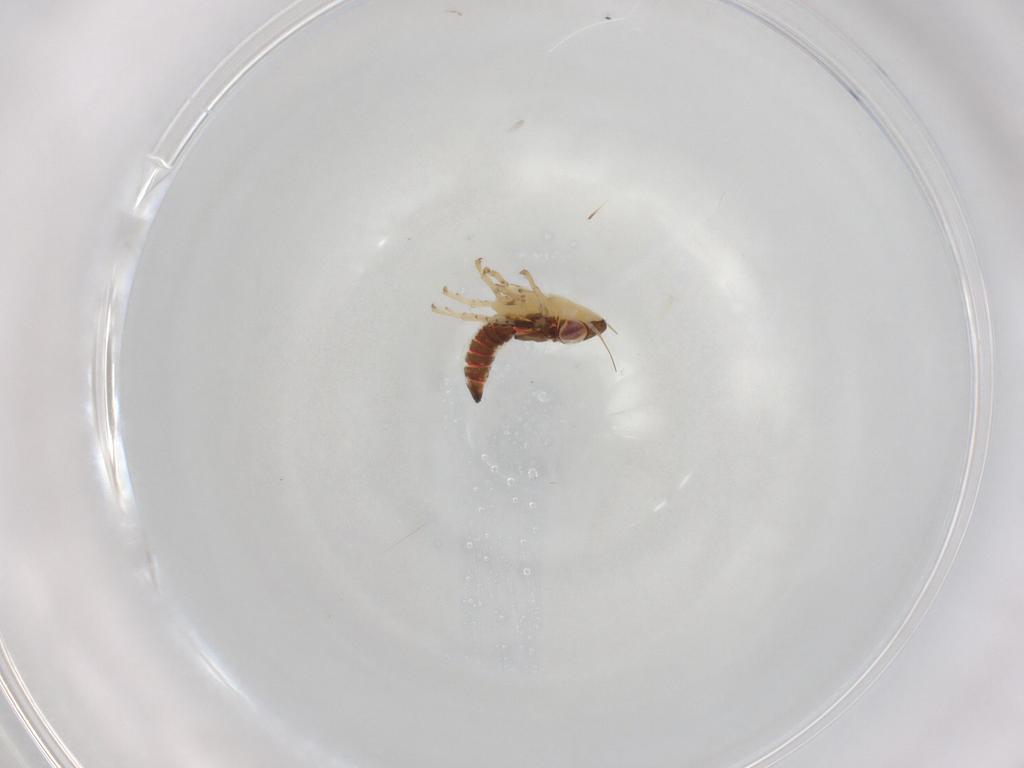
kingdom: Animalia
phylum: Arthropoda
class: Insecta
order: Hemiptera
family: Cicadellidae
